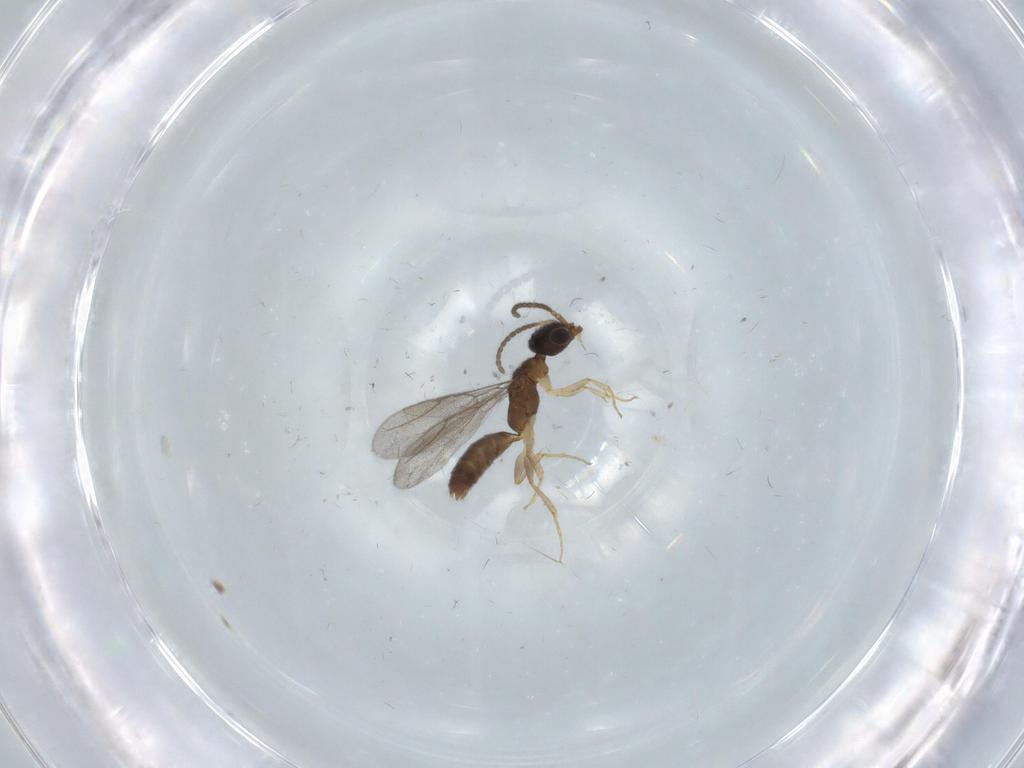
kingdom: Animalia
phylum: Arthropoda
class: Insecta
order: Hymenoptera
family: Bethylidae
